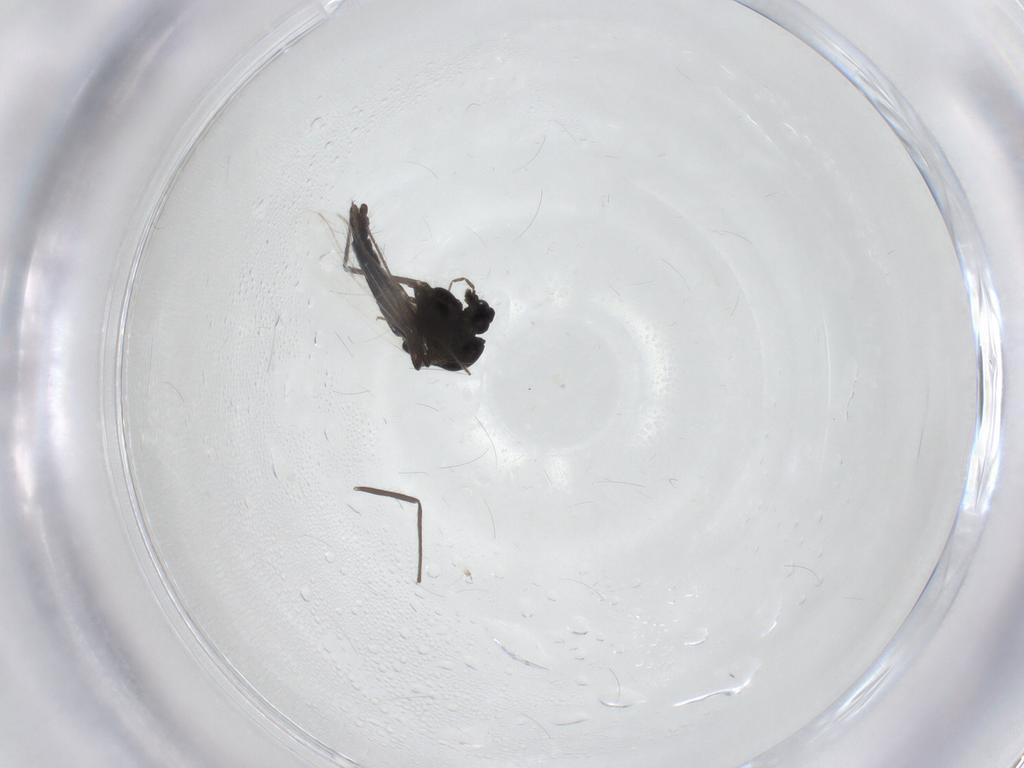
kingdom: Animalia
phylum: Arthropoda
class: Insecta
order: Diptera
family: Chironomidae
